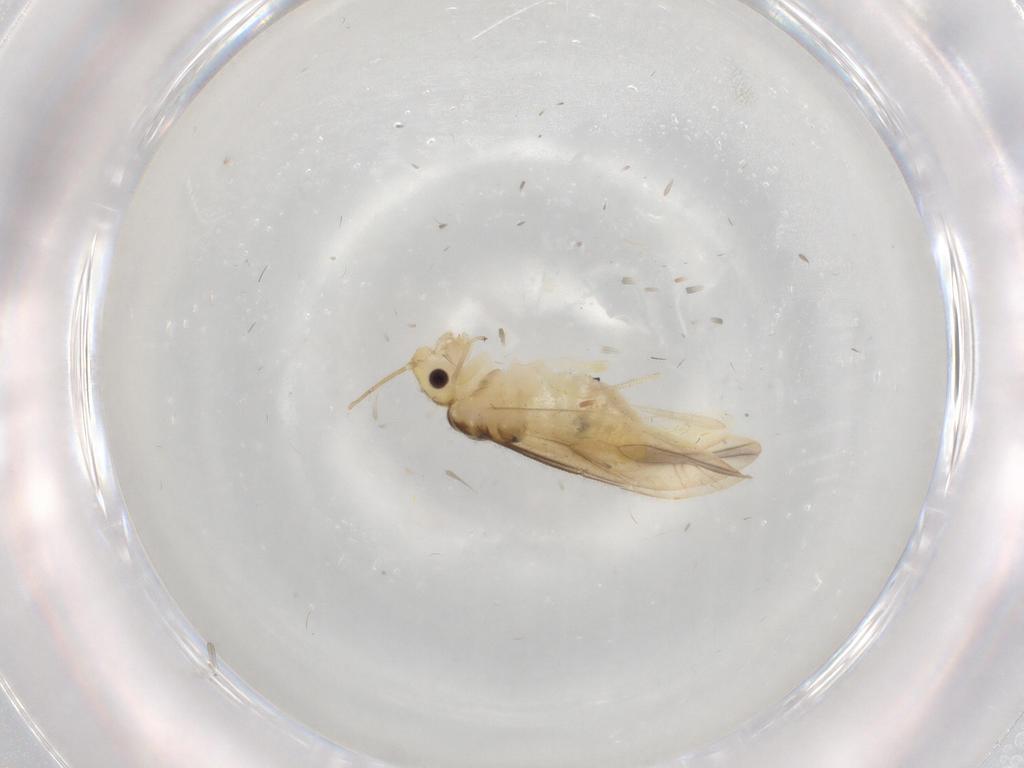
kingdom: Animalia
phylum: Arthropoda
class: Insecta
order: Psocodea
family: Caeciliusidae
